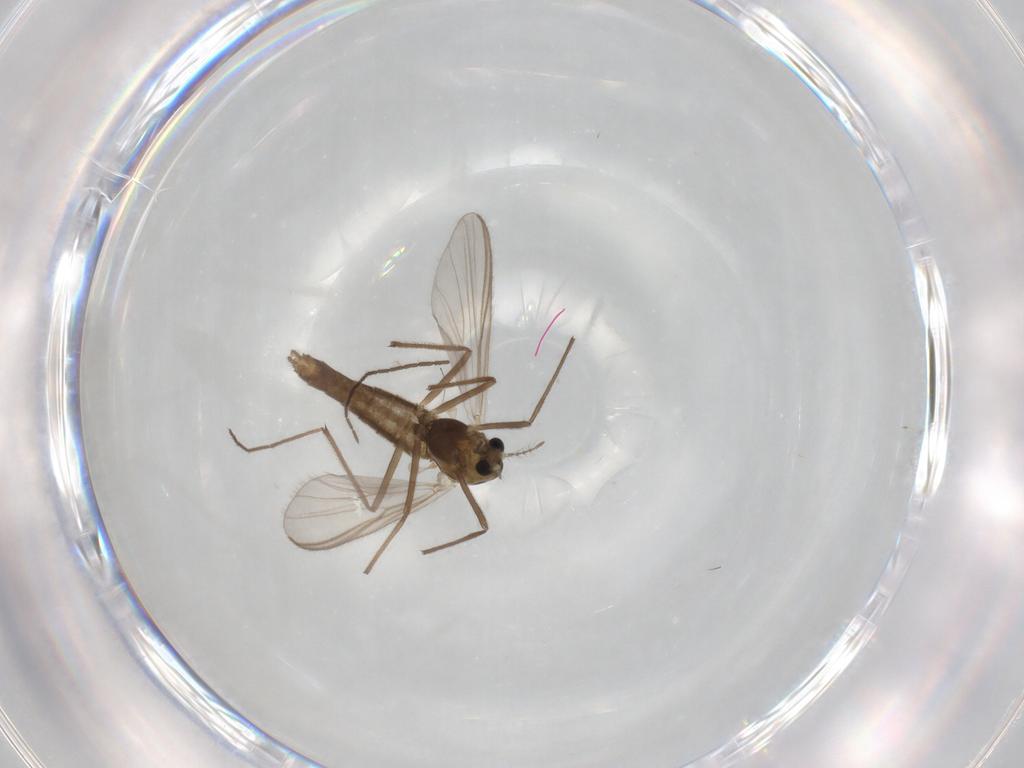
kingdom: Animalia
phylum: Arthropoda
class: Insecta
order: Diptera
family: Chironomidae
